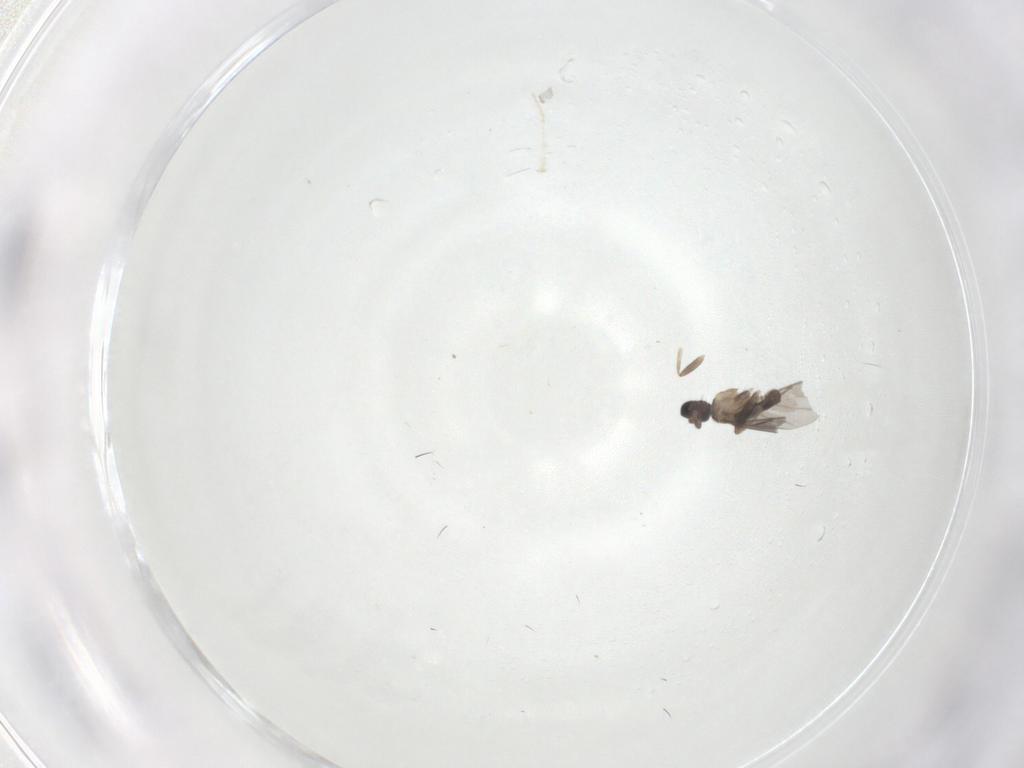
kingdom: Animalia
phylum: Arthropoda
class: Insecta
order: Diptera
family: Cecidomyiidae
